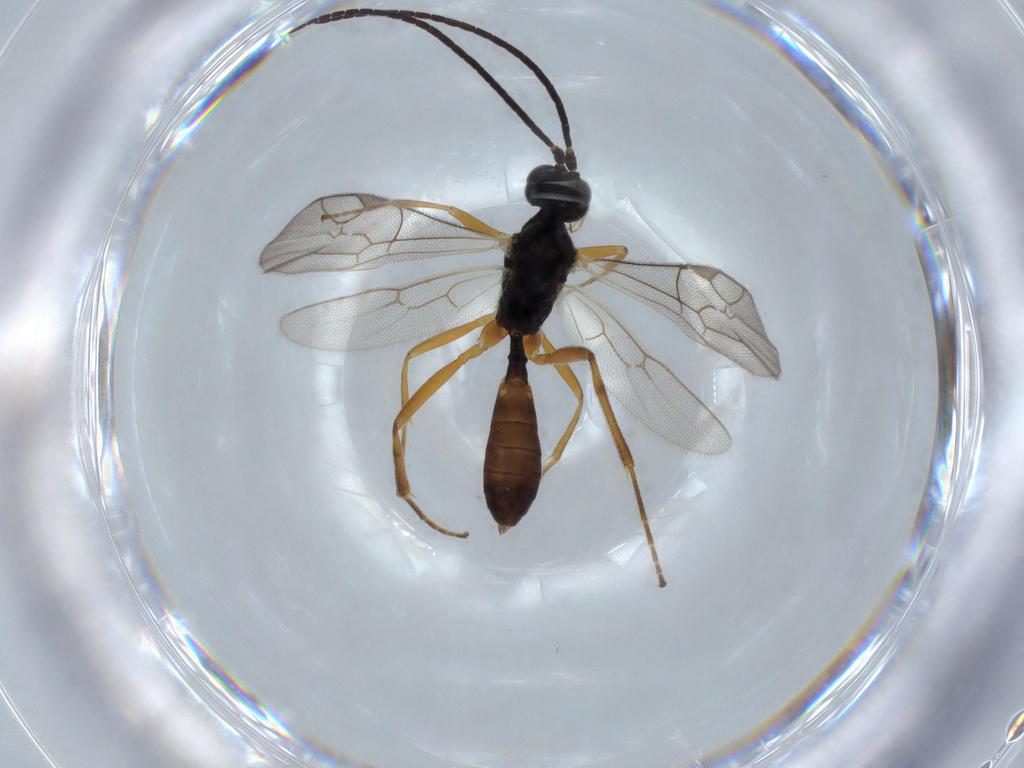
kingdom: Animalia
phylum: Arthropoda
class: Insecta
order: Hymenoptera
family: Ichneumonidae
